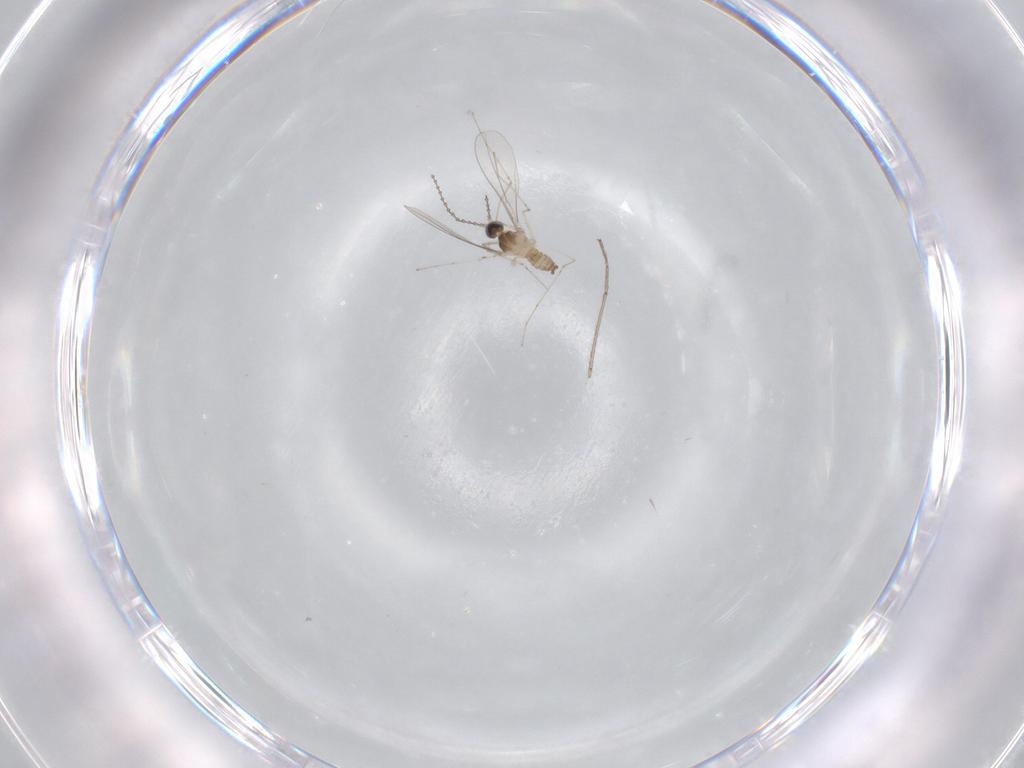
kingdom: Animalia
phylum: Arthropoda
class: Insecta
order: Diptera
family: Cecidomyiidae
